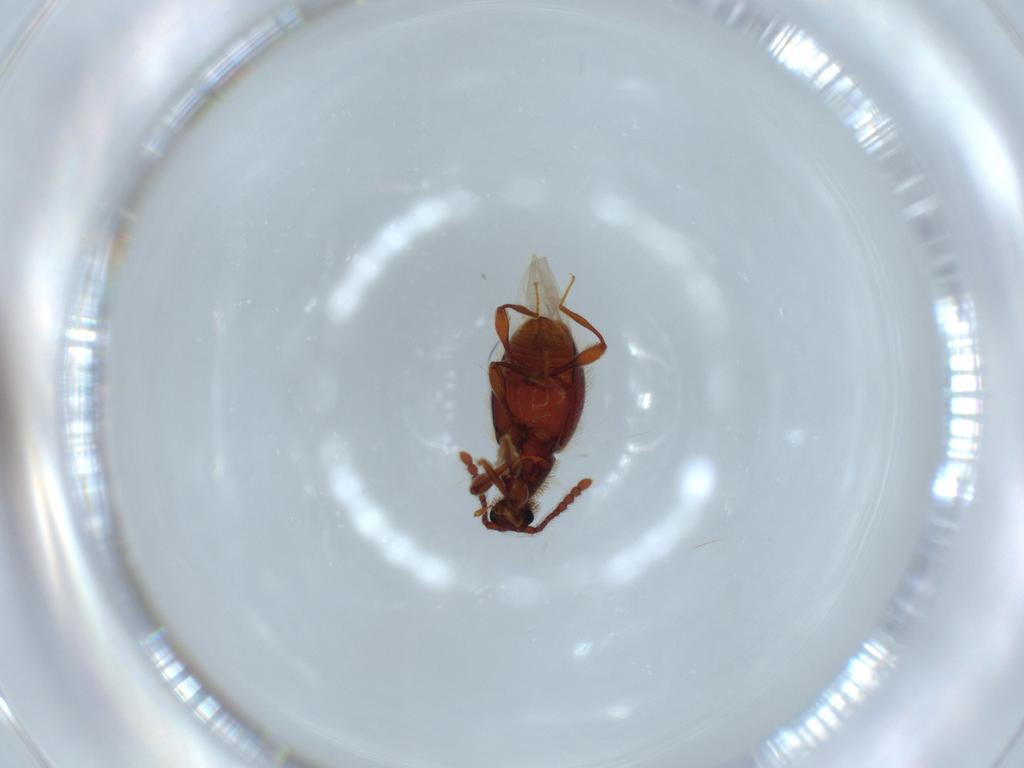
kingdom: Animalia
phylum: Arthropoda
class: Insecta
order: Coleoptera
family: Staphylinidae
